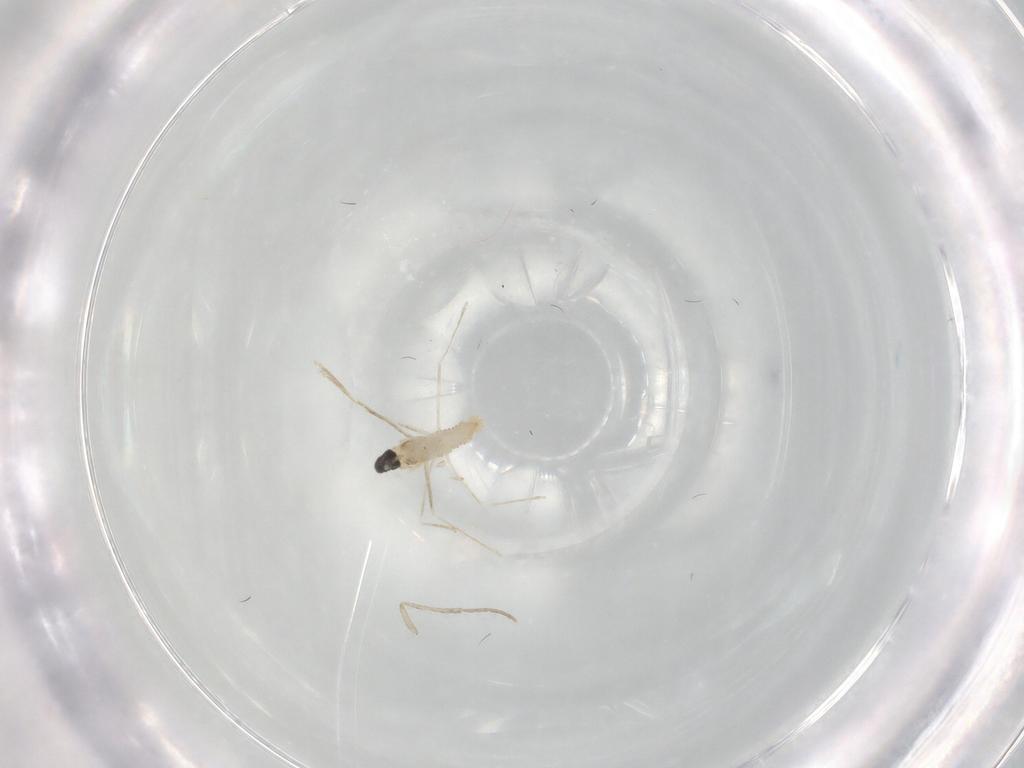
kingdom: Animalia
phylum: Arthropoda
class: Insecta
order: Diptera
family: Cecidomyiidae
